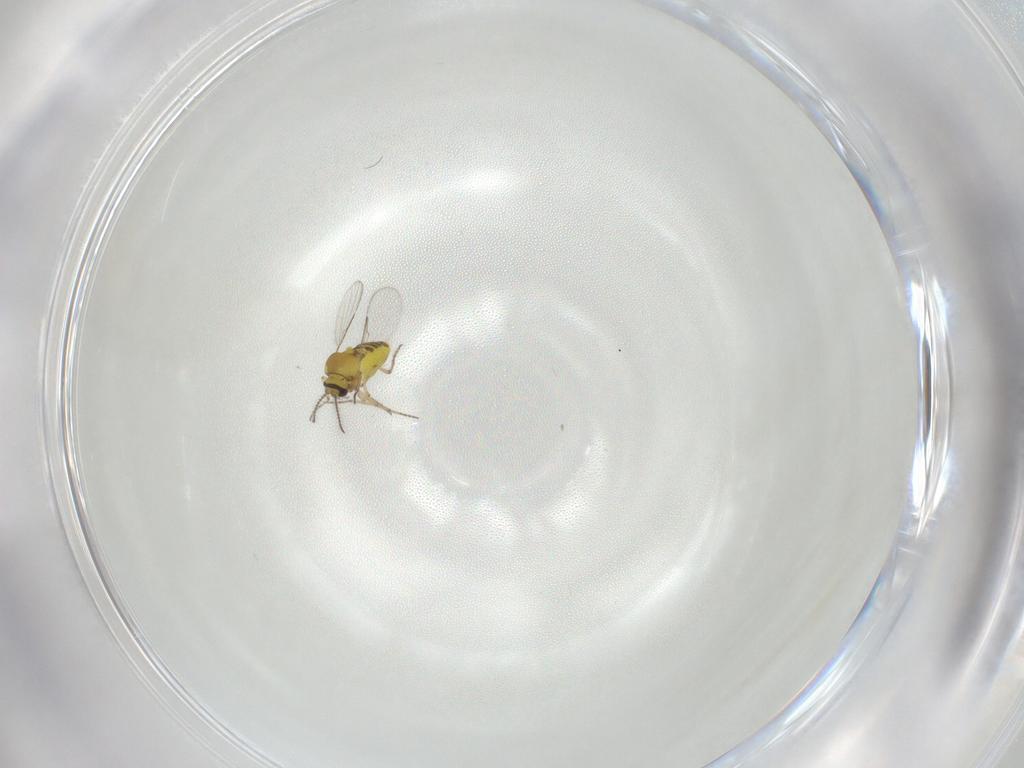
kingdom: Animalia
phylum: Arthropoda
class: Insecta
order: Diptera
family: Ceratopogonidae
